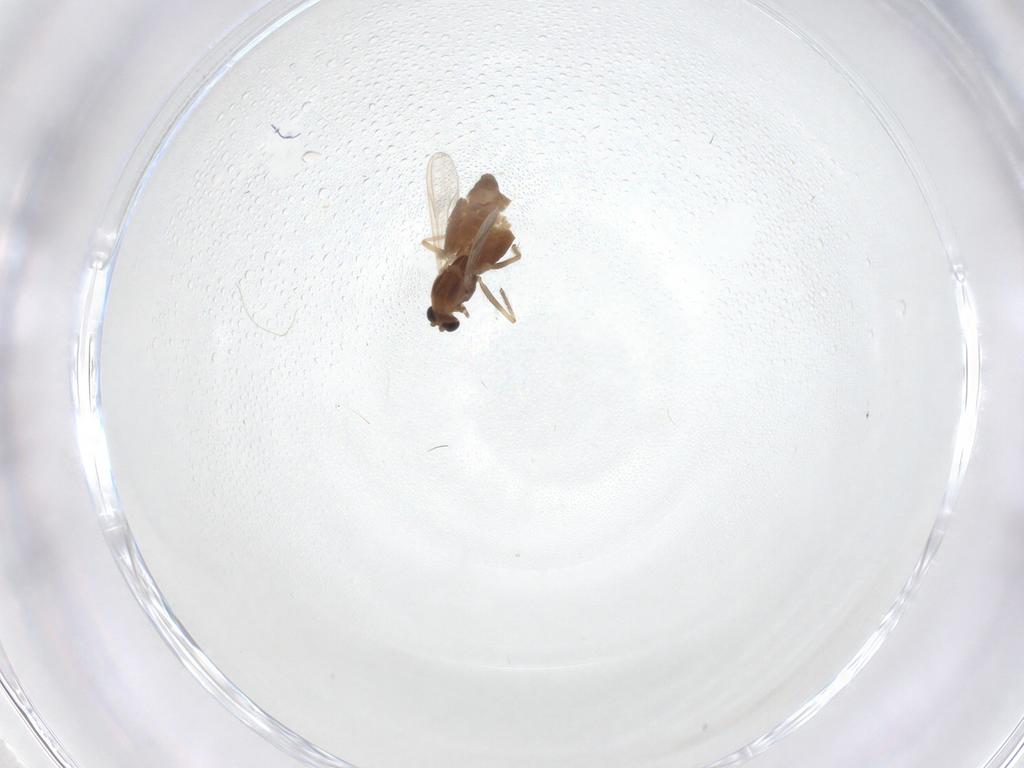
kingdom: Animalia
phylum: Arthropoda
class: Insecta
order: Diptera
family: Chironomidae
